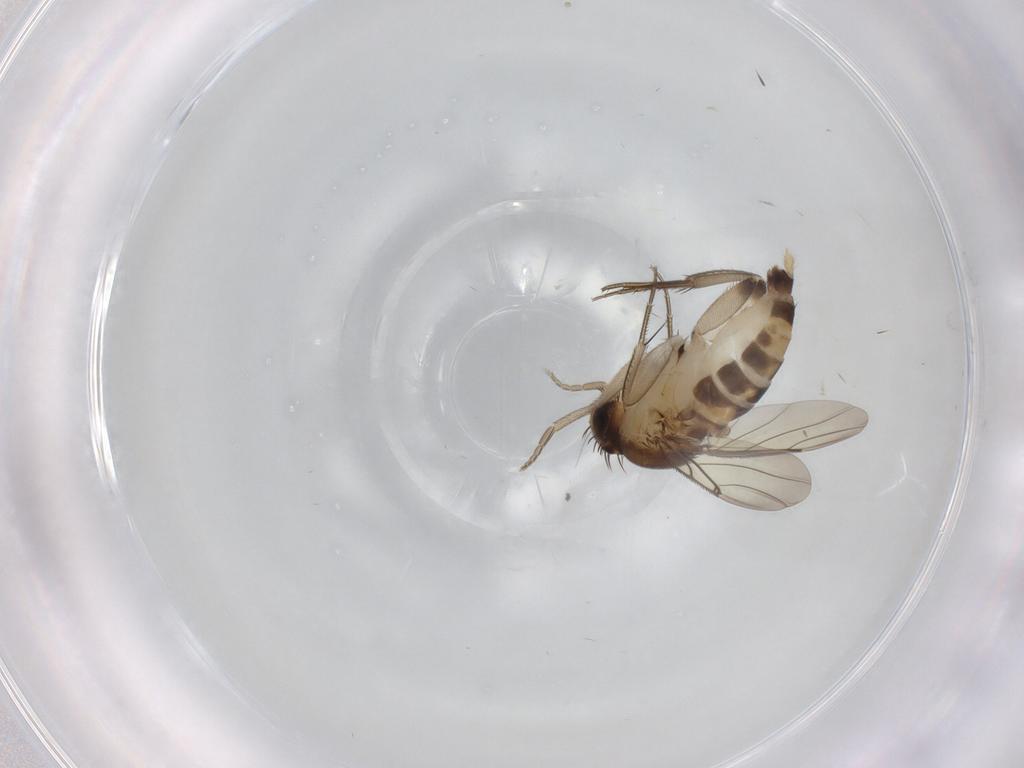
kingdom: Animalia
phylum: Arthropoda
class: Insecta
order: Diptera
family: Phoridae
